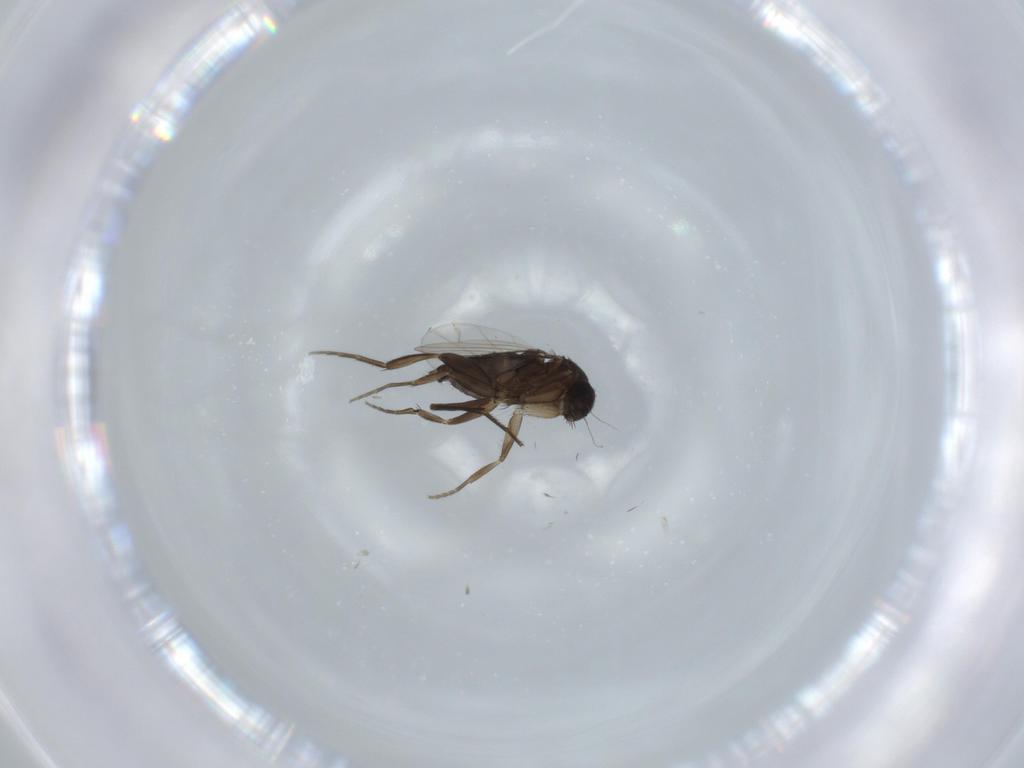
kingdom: Animalia
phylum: Arthropoda
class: Insecta
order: Diptera
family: Phoridae
